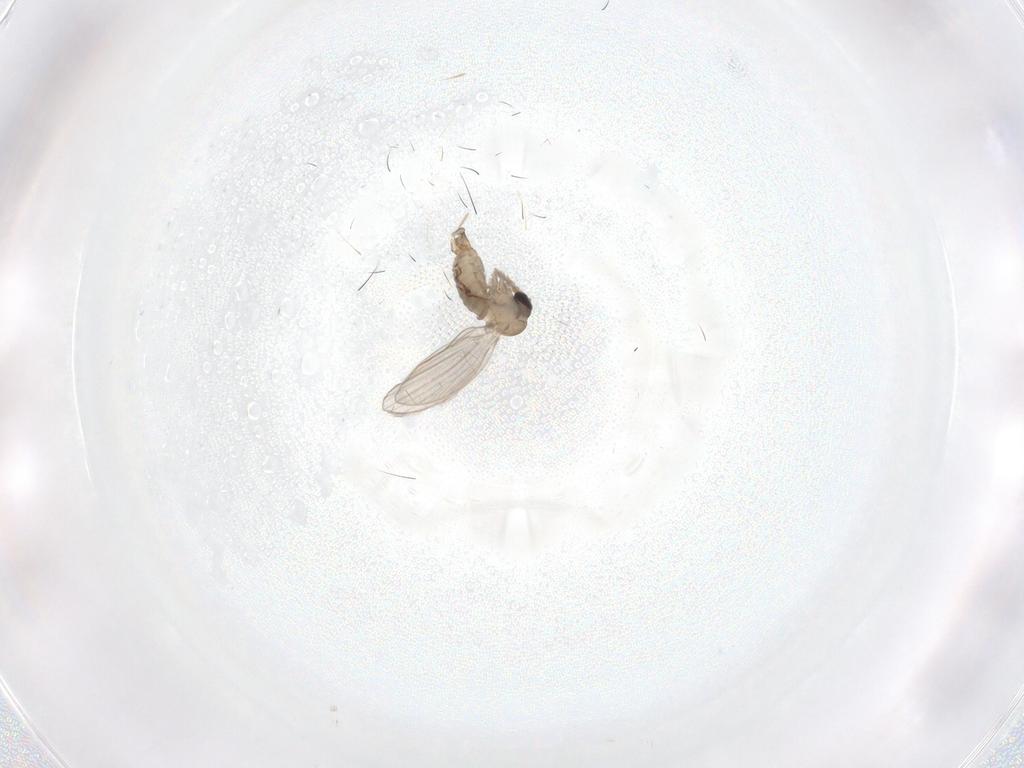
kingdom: Animalia
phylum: Arthropoda
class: Insecta
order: Diptera
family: Psychodidae
